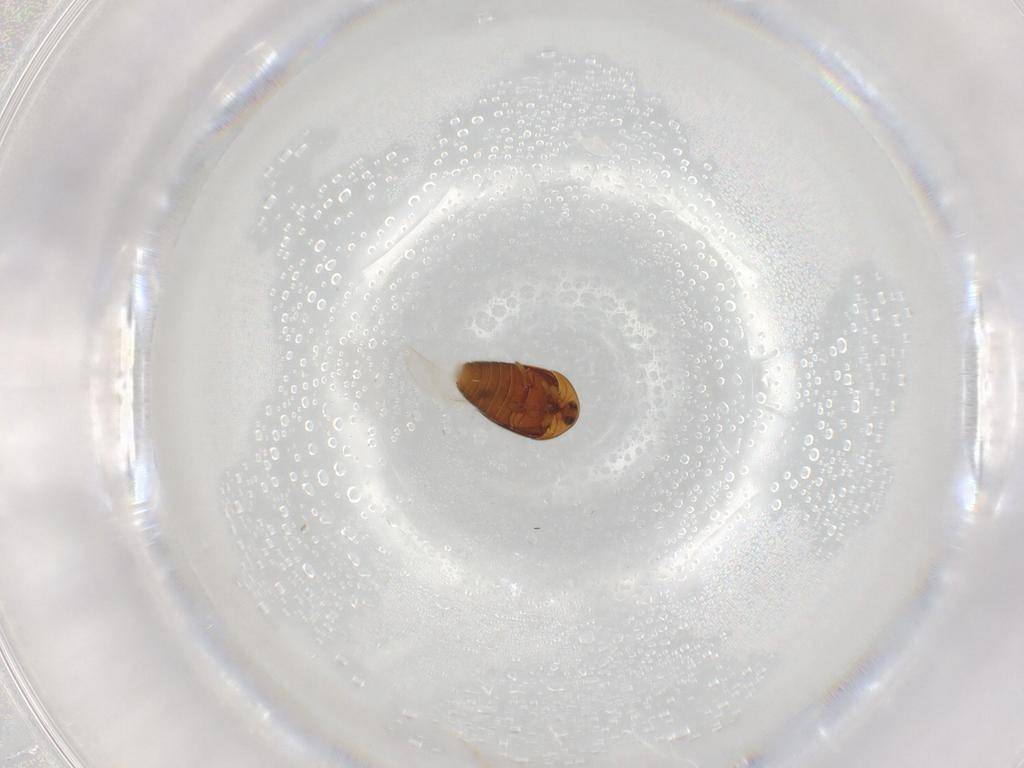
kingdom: Animalia
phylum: Arthropoda
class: Insecta
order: Coleoptera
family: Corylophidae
